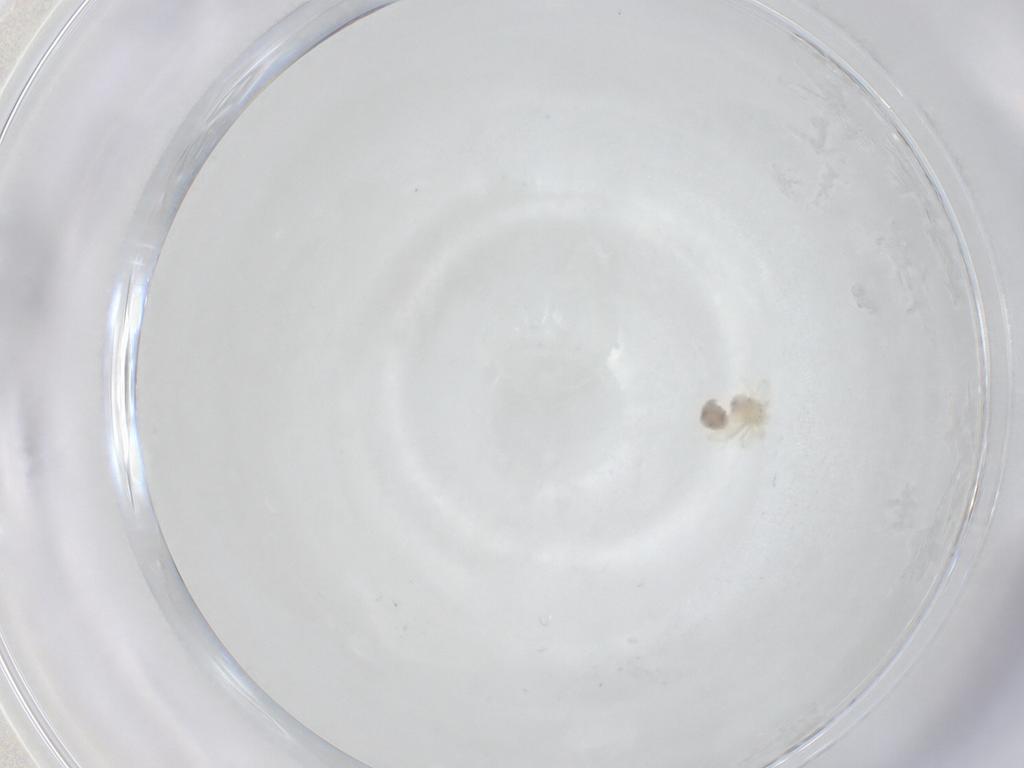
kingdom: Animalia
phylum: Arthropoda
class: Arachnida
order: Trombidiformes
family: Anystidae
